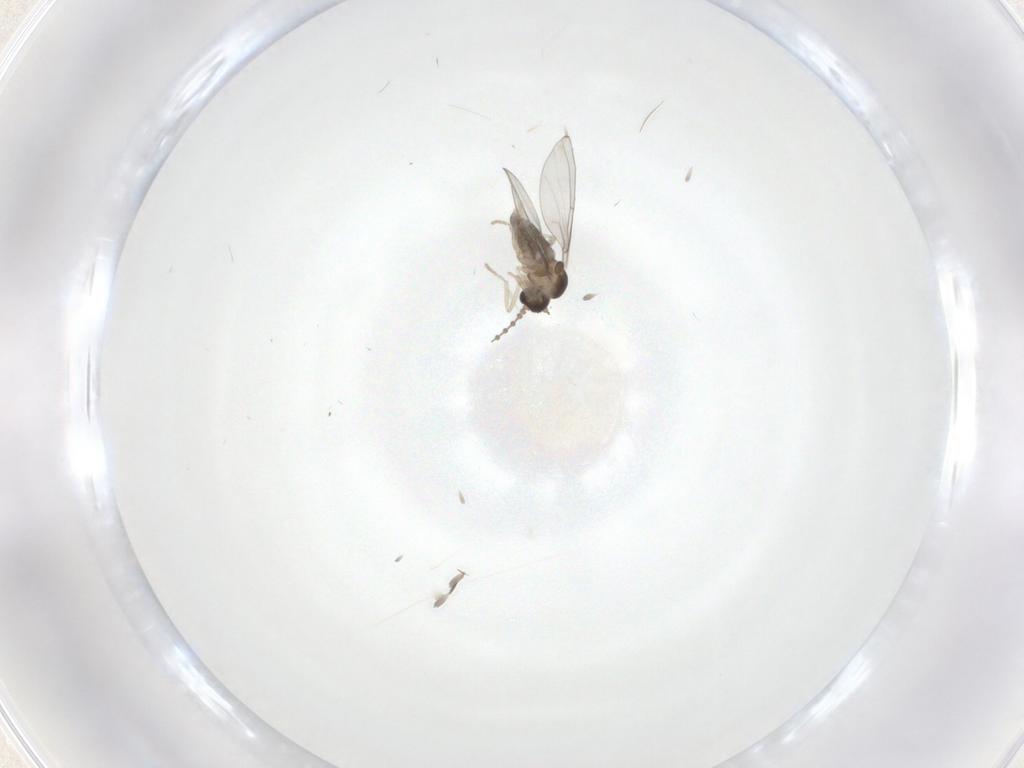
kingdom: Animalia
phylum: Arthropoda
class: Insecta
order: Diptera
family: Cecidomyiidae
